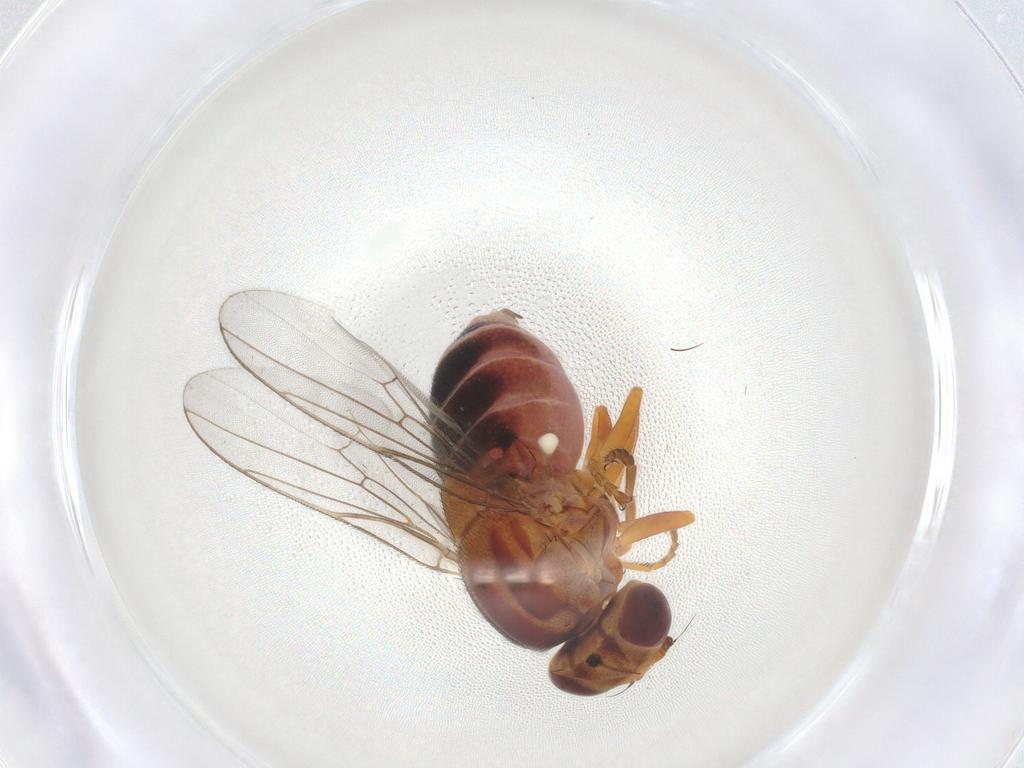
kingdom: Animalia
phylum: Arthropoda
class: Insecta
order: Diptera
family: Chloropidae
